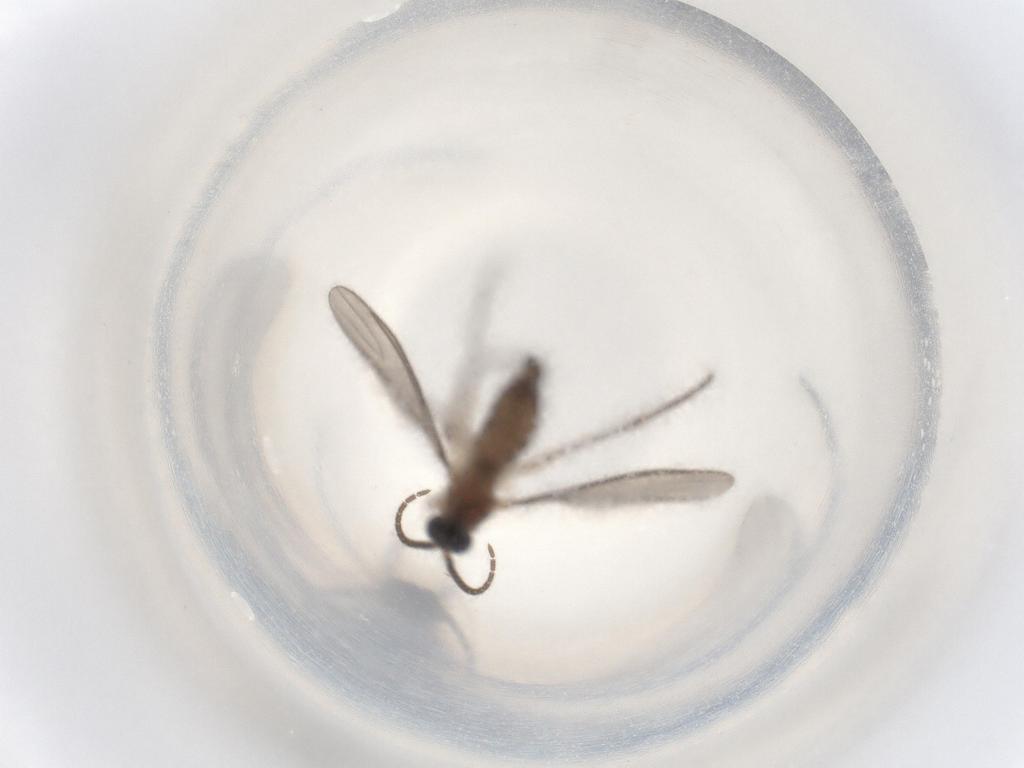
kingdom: Animalia
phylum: Arthropoda
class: Insecta
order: Diptera
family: Sciaridae
